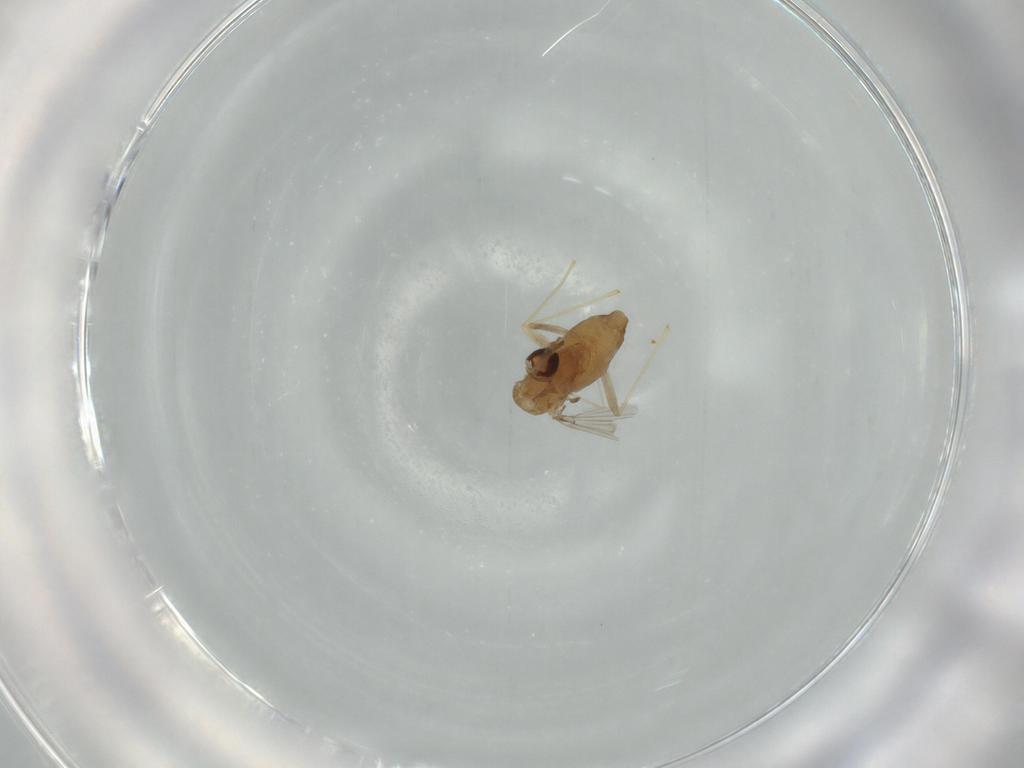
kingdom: Animalia
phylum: Arthropoda
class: Insecta
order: Diptera
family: Chironomidae
